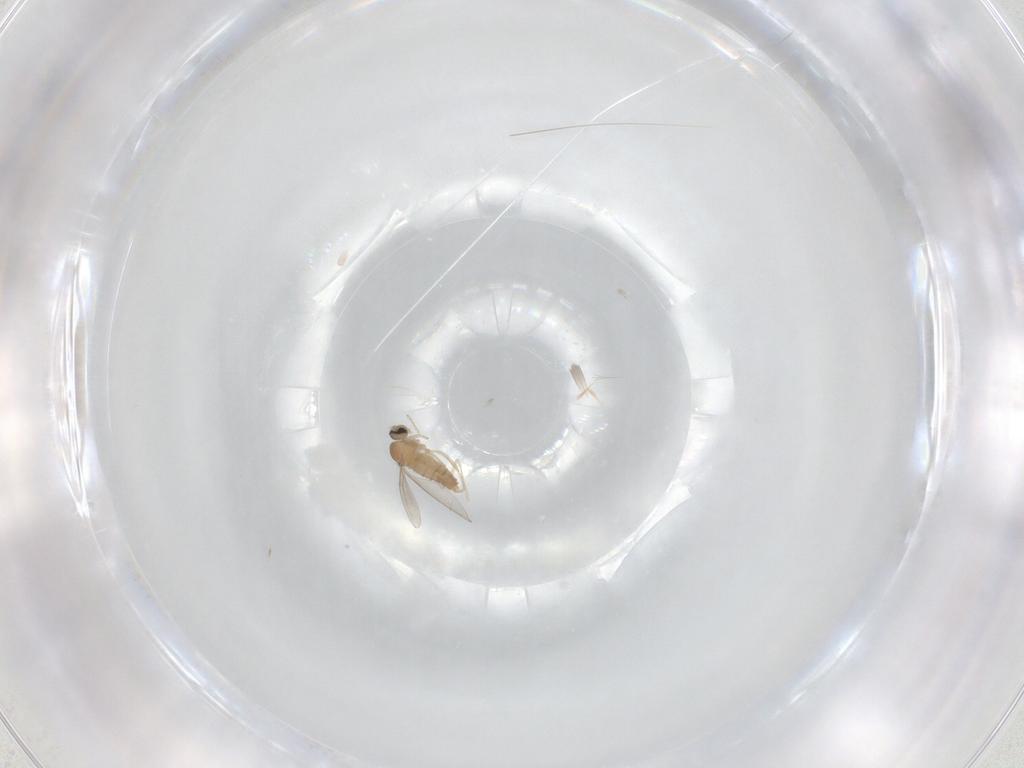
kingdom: Animalia
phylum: Arthropoda
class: Insecta
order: Diptera
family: Cecidomyiidae
